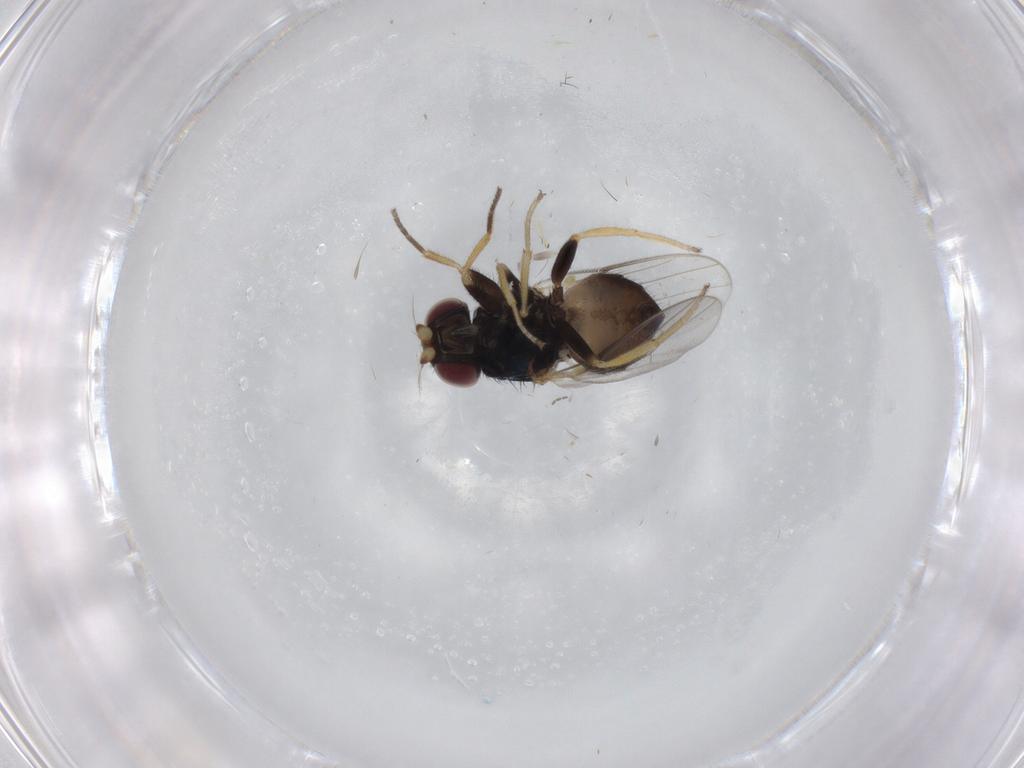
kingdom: Animalia
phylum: Arthropoda
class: Insecta
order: Diptera
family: Chloropidae
